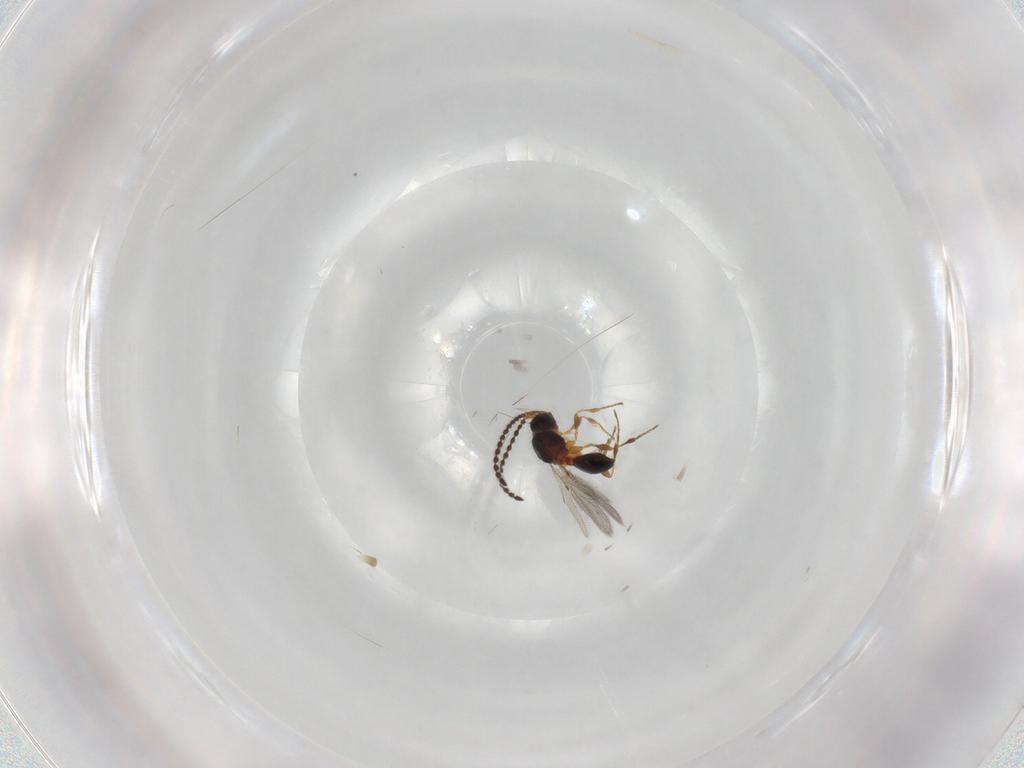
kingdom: Animalia
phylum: Arthropoda
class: Insecta
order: Hymenoptera
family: Diapriidae
